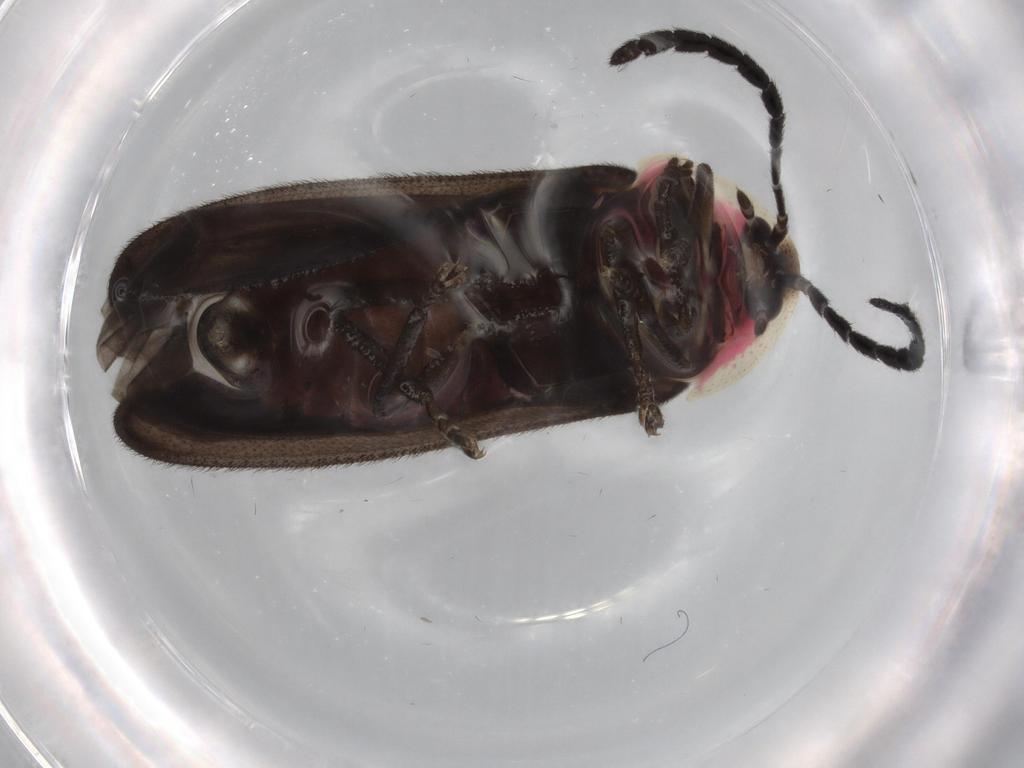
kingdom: Animalia
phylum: Arthropoda
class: Insecta
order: Coleoptera
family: Lampyridae
